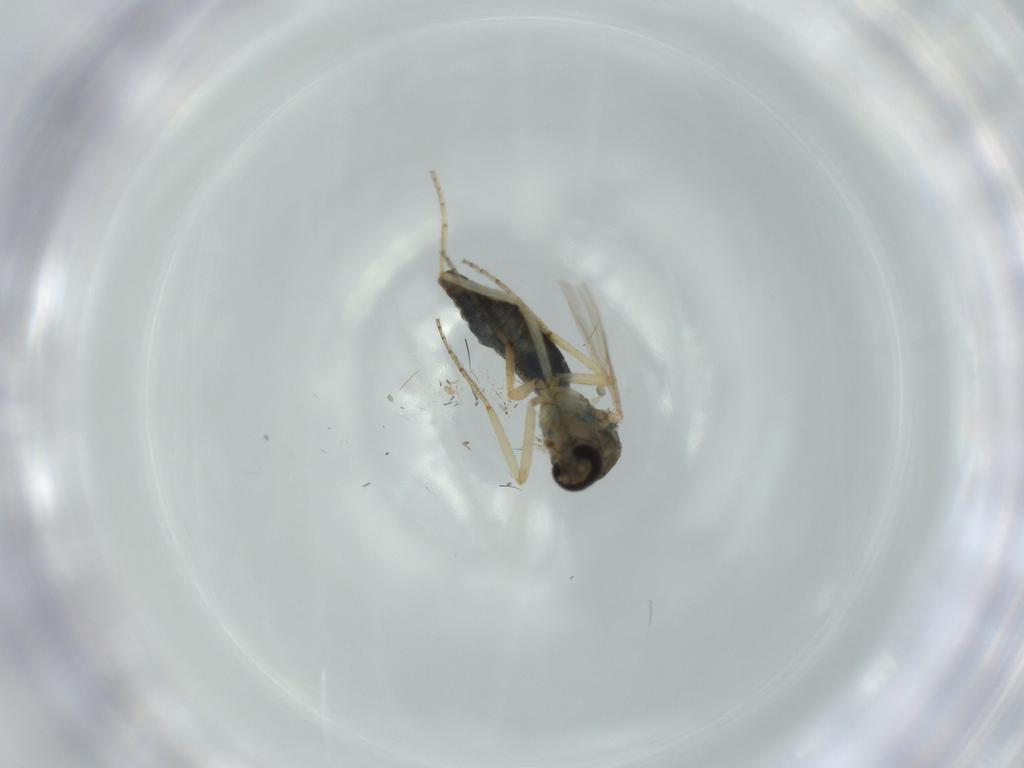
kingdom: Animalia
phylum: Arthropoda
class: Insecta
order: Diptera
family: Ceratopogonidae
